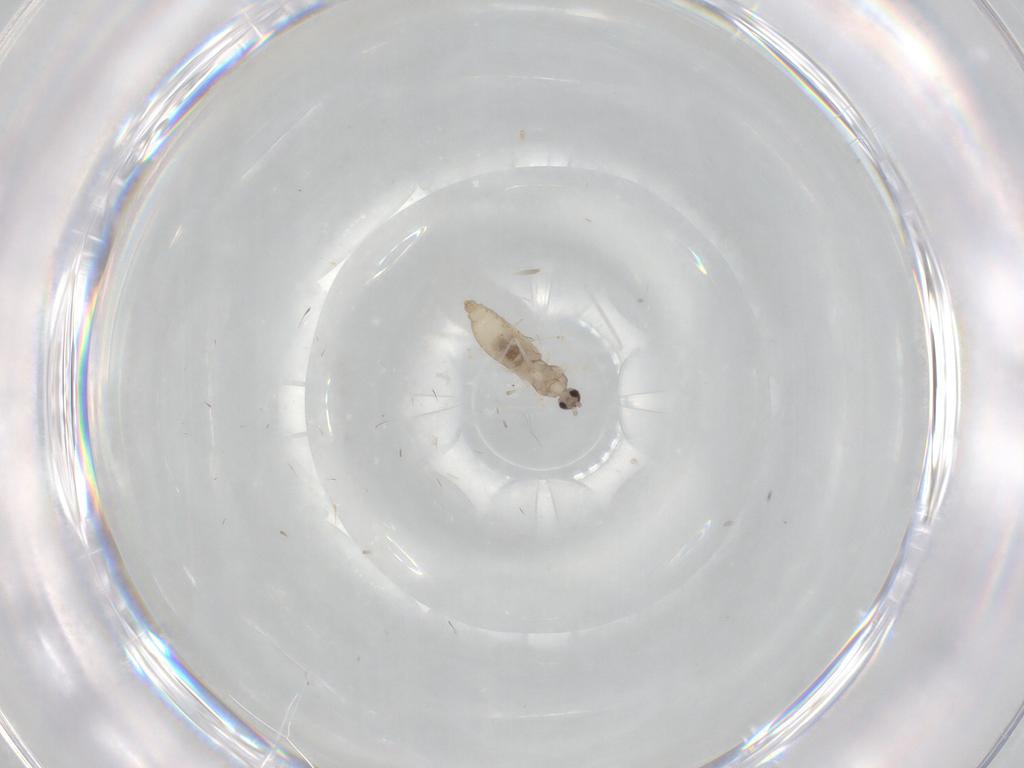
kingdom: Animalia
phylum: Arthropoda
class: Insecta
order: Diptera
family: Cecidomyiidae
